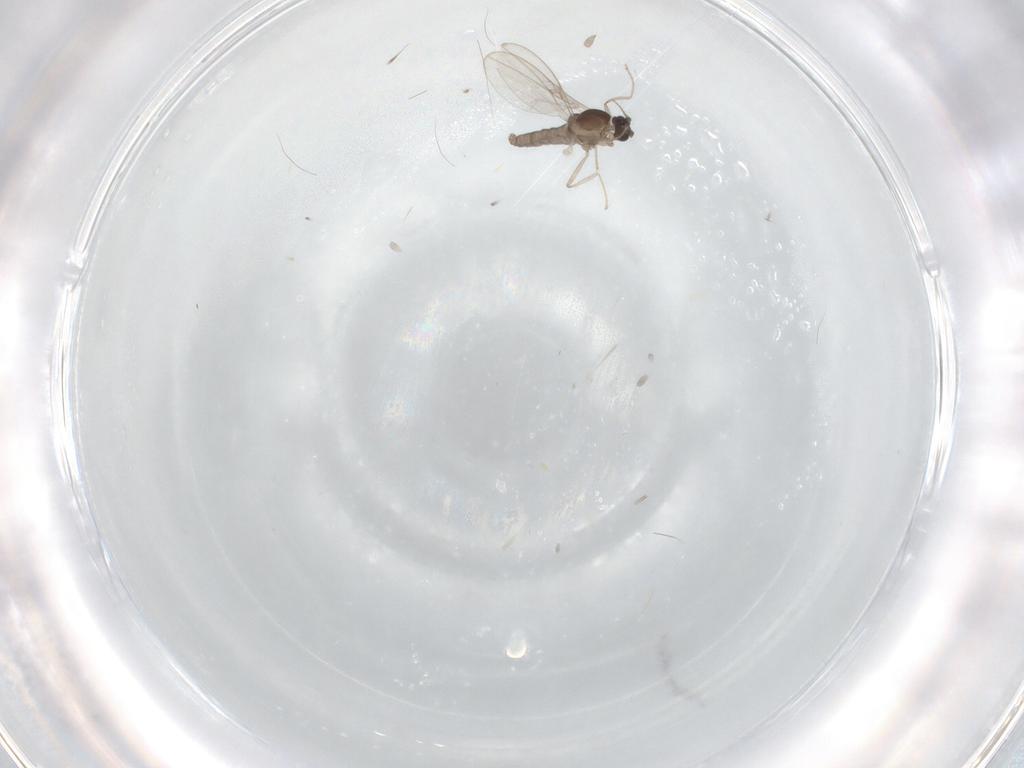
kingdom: Animalia
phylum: Arthropoda
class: Insecta
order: Diptera
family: Cecidomyiidae
